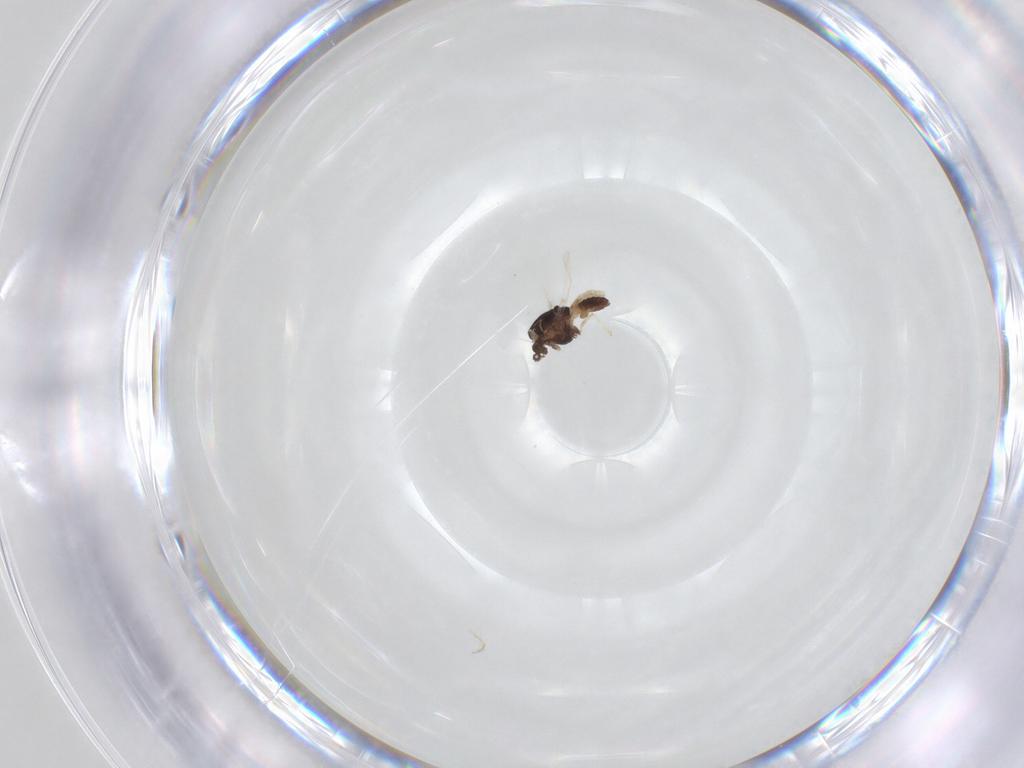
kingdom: Animalia
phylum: Arthropoda
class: Insecta
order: Diptera
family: Chironomidae
